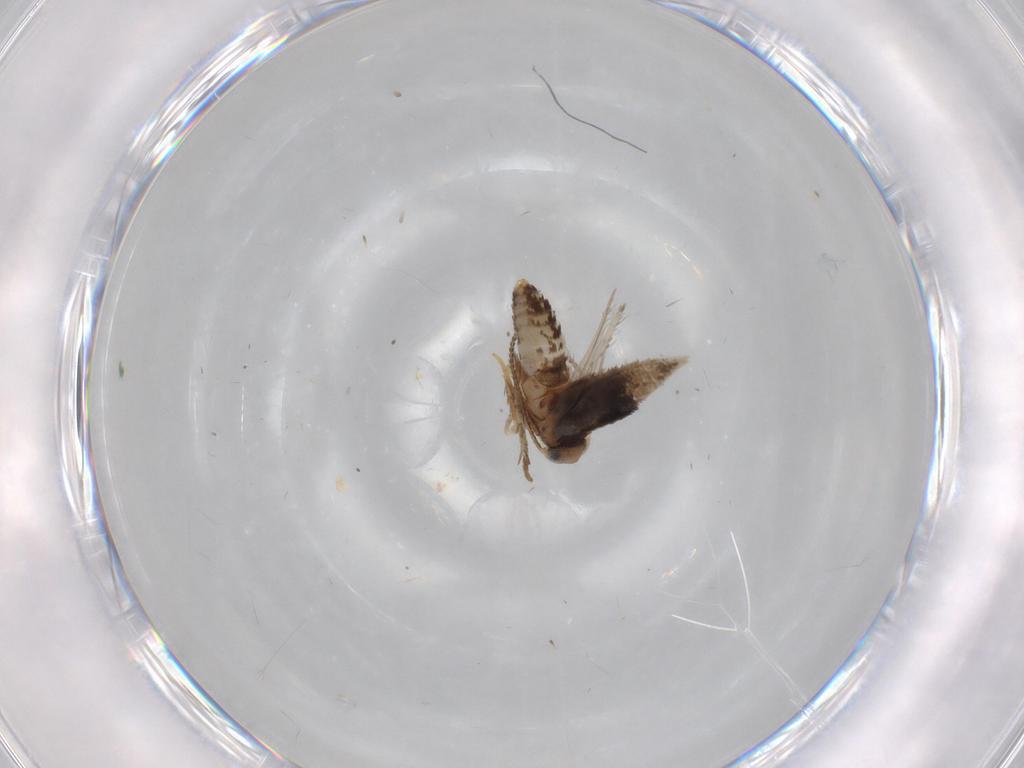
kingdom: Animalia
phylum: Arthropoda
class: Insecta
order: Lepidoptera
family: Nepticulidae
